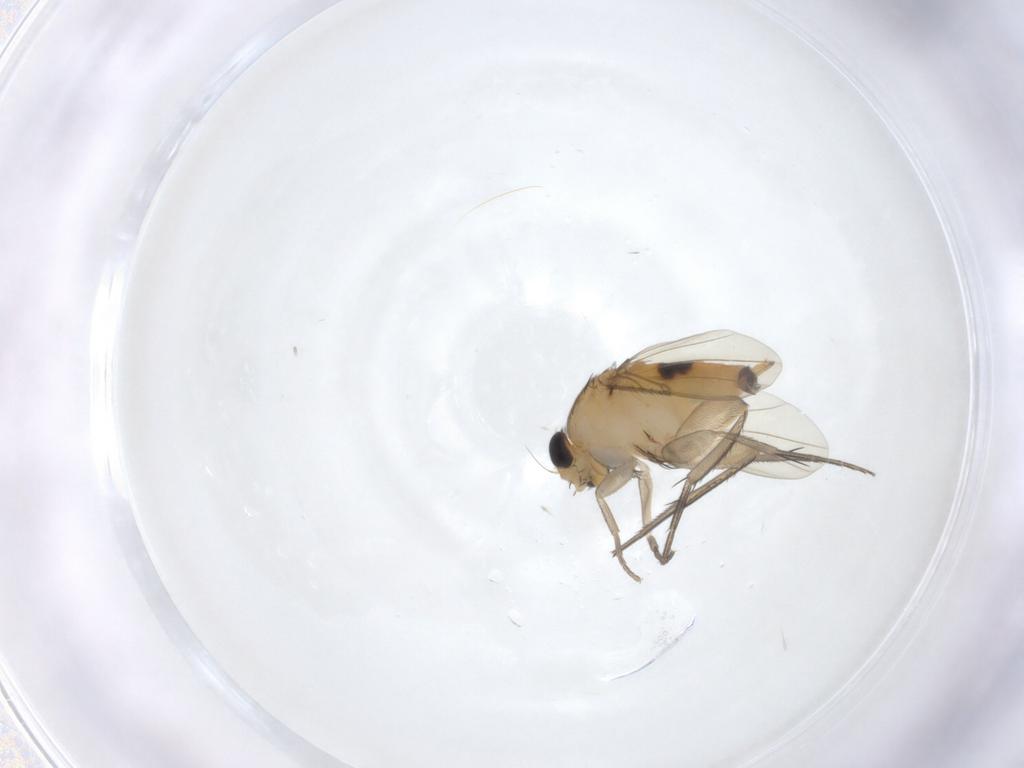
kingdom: Animalia
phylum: Arthropoda
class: Insecta
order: Diptera
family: Phoridae
